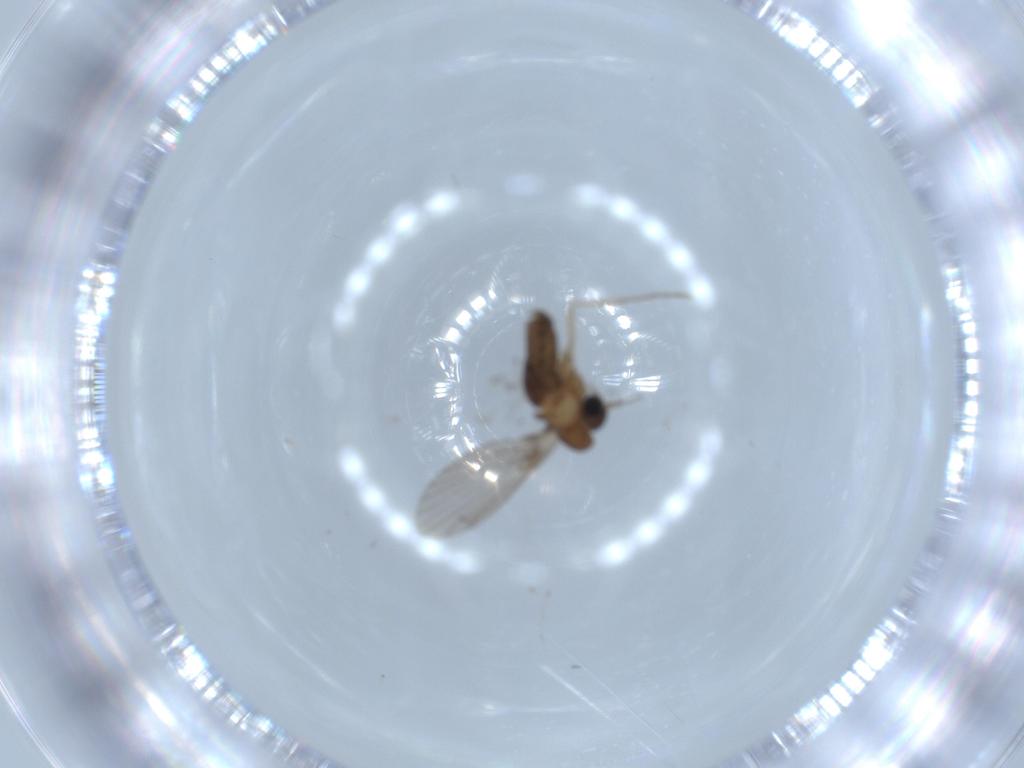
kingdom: Animalia
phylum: Arthropoda
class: Insecta
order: Diptera
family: Psychodidae
